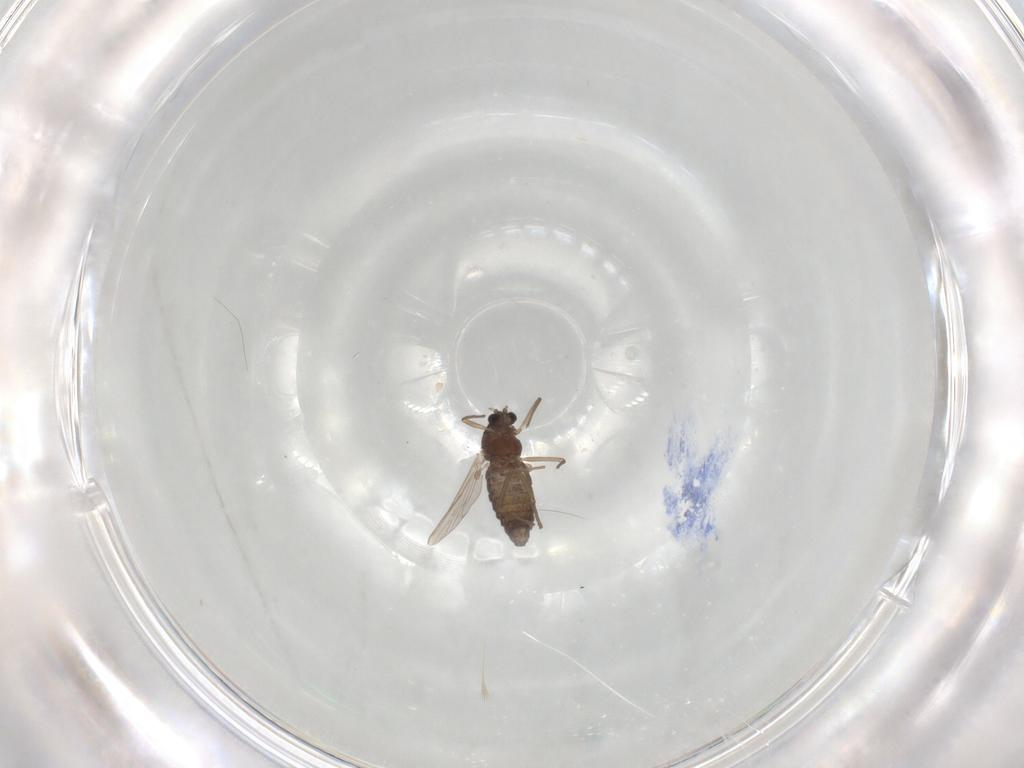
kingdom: Animalia
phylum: Arthropoda
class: Insecta
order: Diptera
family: Chironomidae
